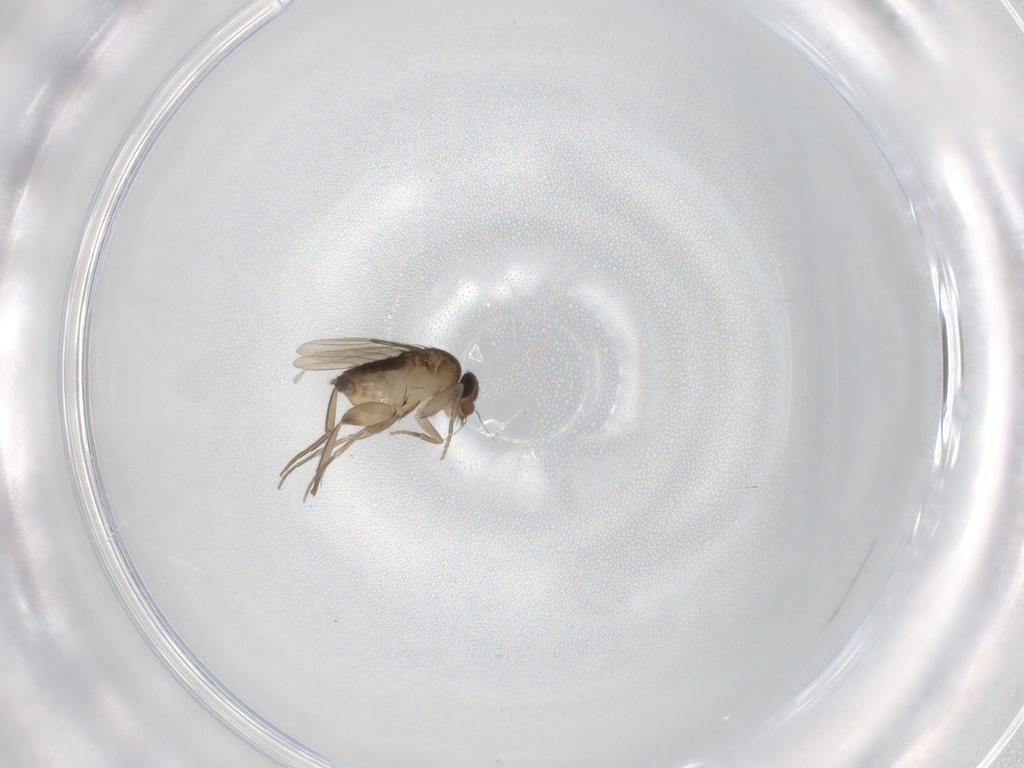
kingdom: Animalia
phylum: Arthropoda
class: Insecta
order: Diptera
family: Phoridae
